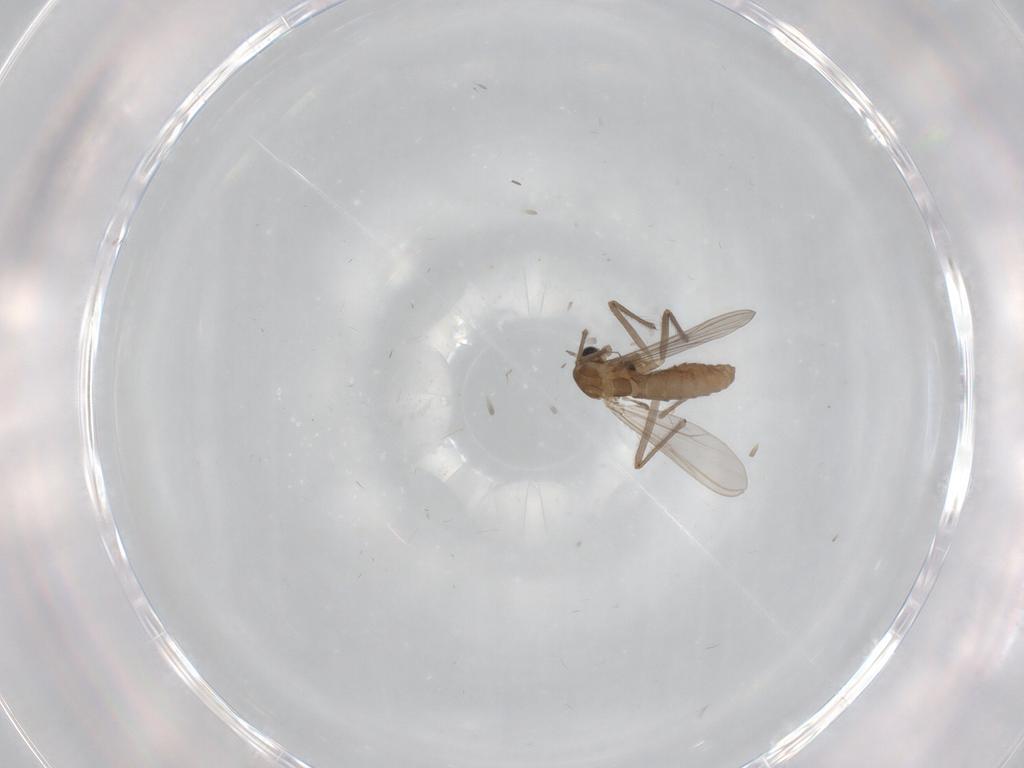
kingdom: Animalia
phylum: Arthropoda
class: Insecta
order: Diptera
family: Chironomidae
